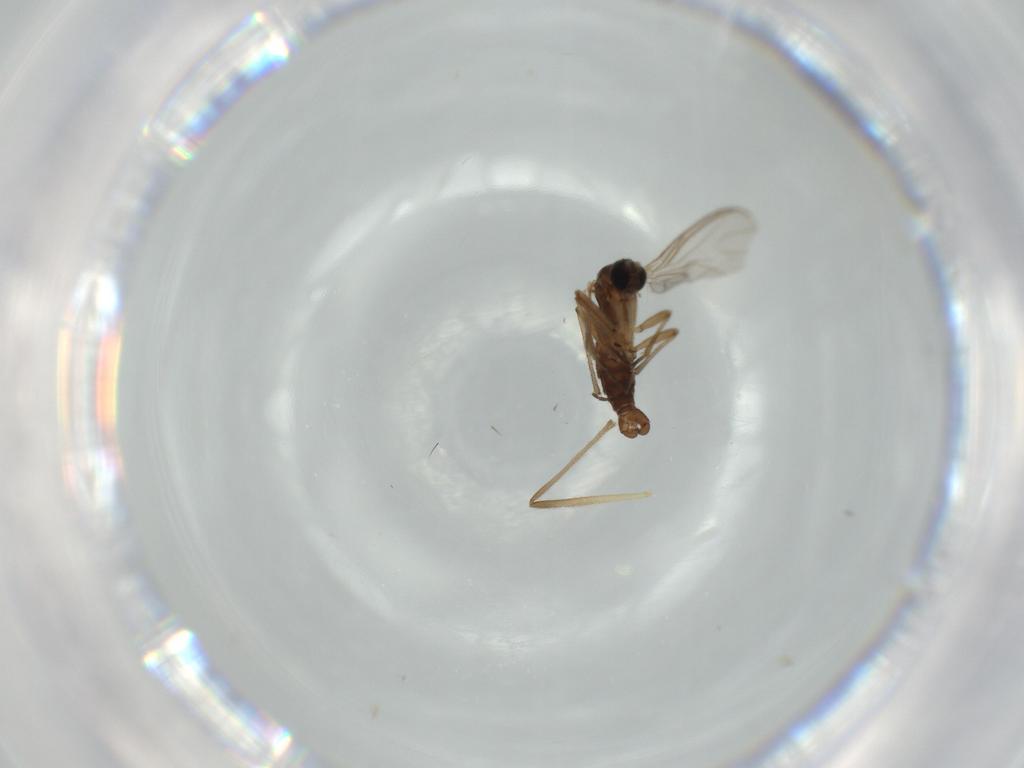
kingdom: Animalia
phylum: Arthropoda
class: Insecta
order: Diptera
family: Chironomidae
